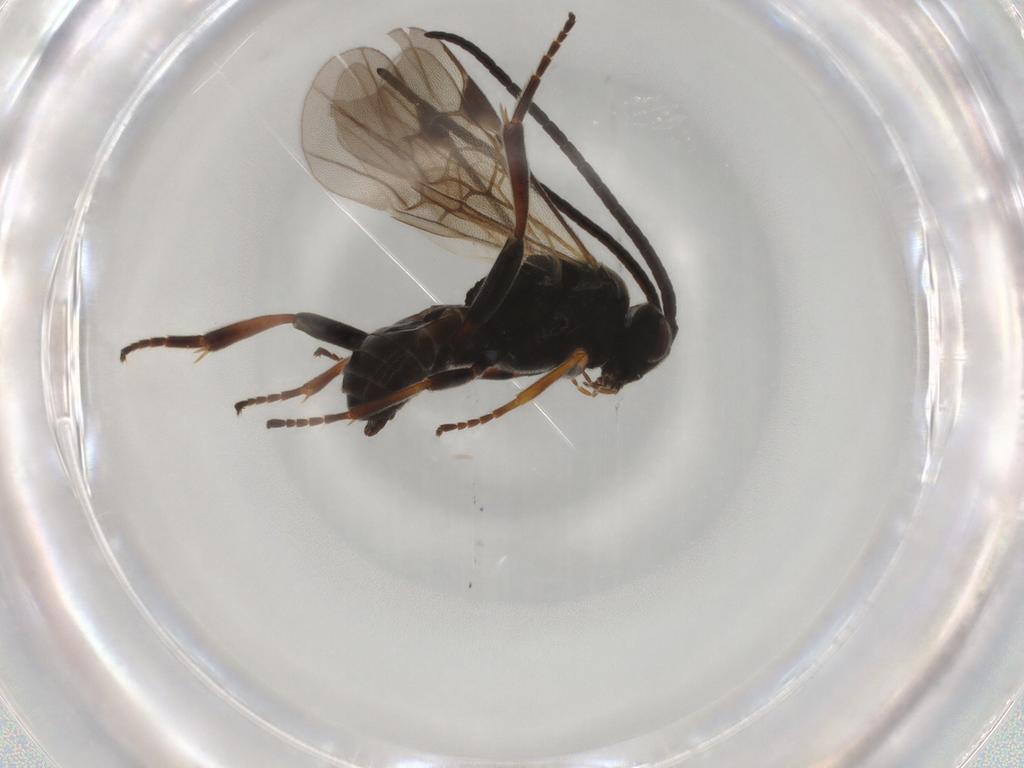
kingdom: Animalia
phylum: Arthropoda
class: Insecta
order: Hymenoptera
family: Braconidae
